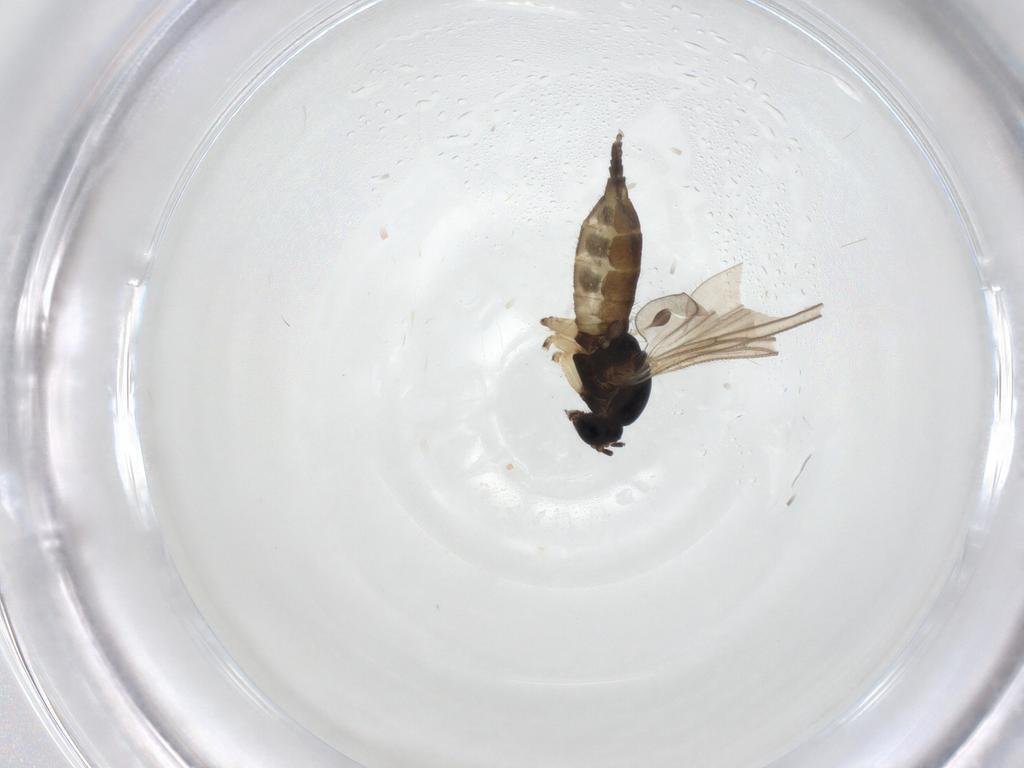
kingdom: Animalia
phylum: Arthropoda
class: Insecta
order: Diptera
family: Sciaridae
